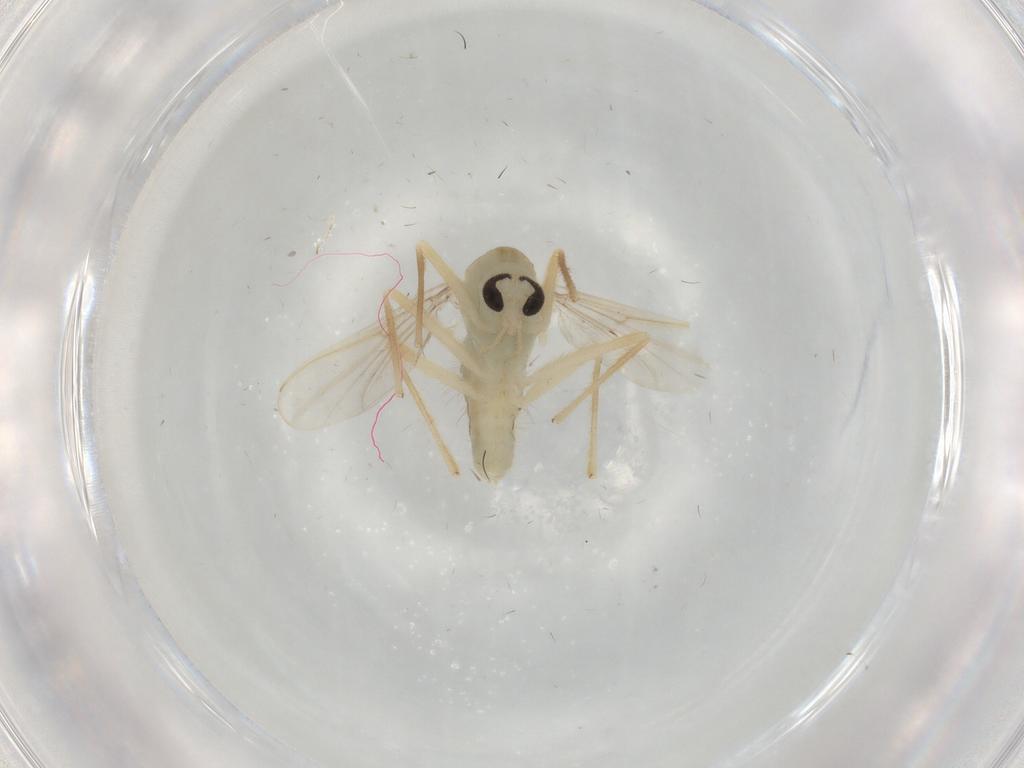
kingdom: Animalia
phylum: Arthropoda
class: Insecta
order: Diptera
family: Chironomidae
